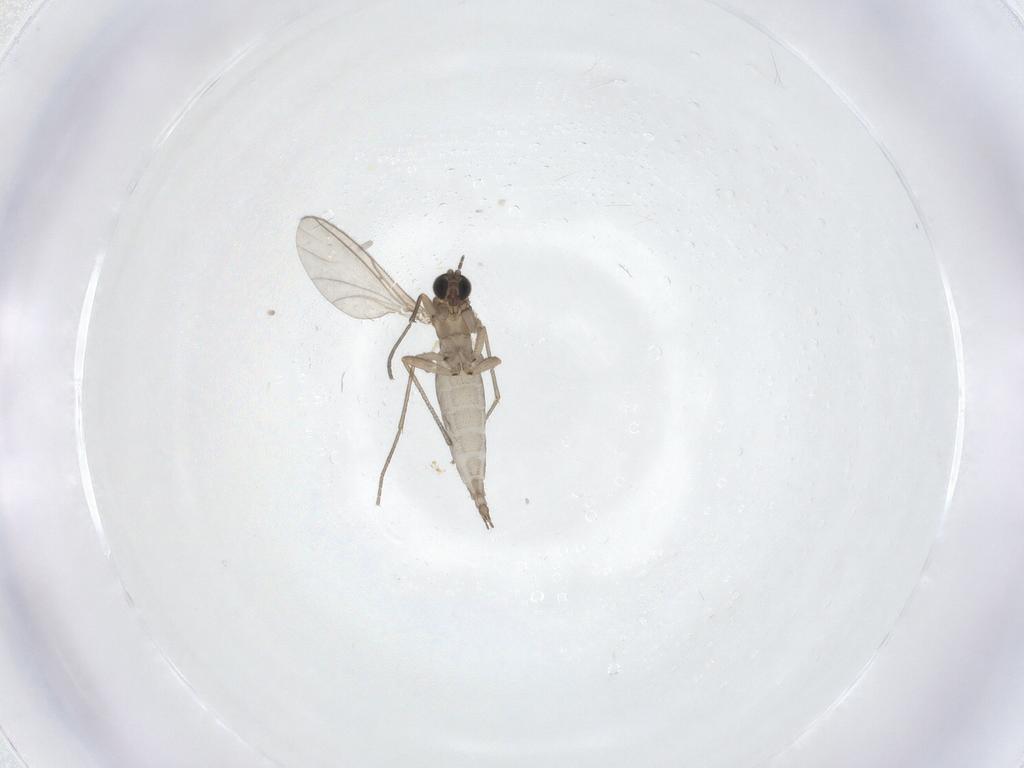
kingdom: Animalia
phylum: Arthropoda
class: Insecta
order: Diptera
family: Sciaridae
